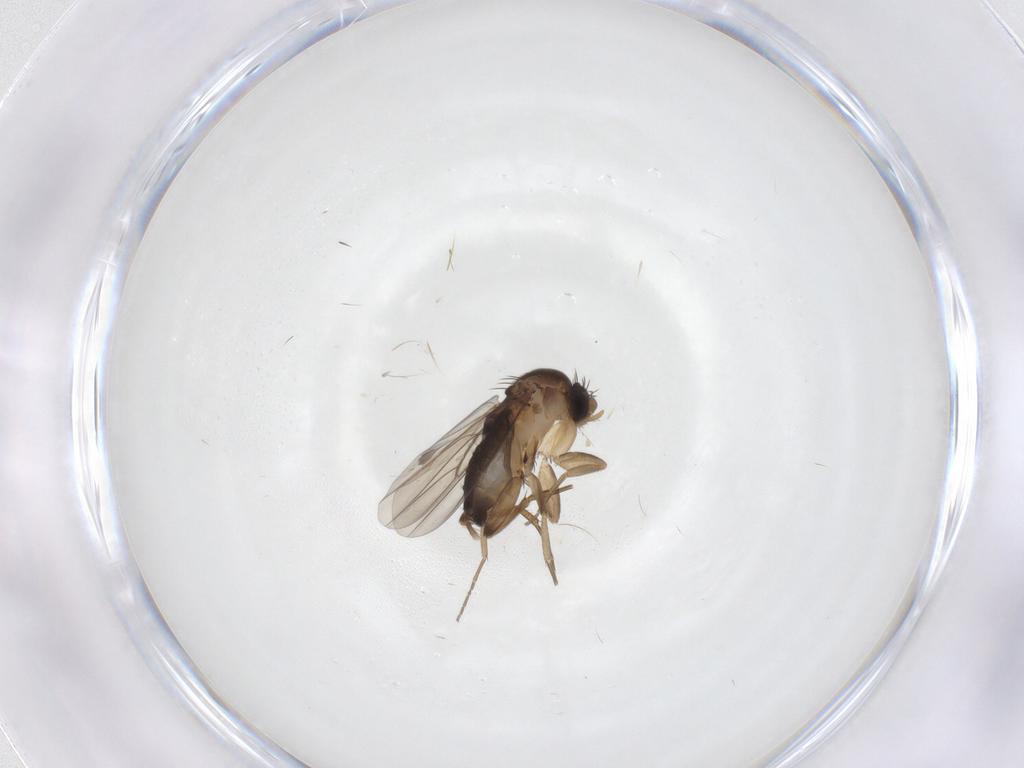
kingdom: Animalia
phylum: Arthropoda
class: Insecta
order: Diptera
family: Phoridae
